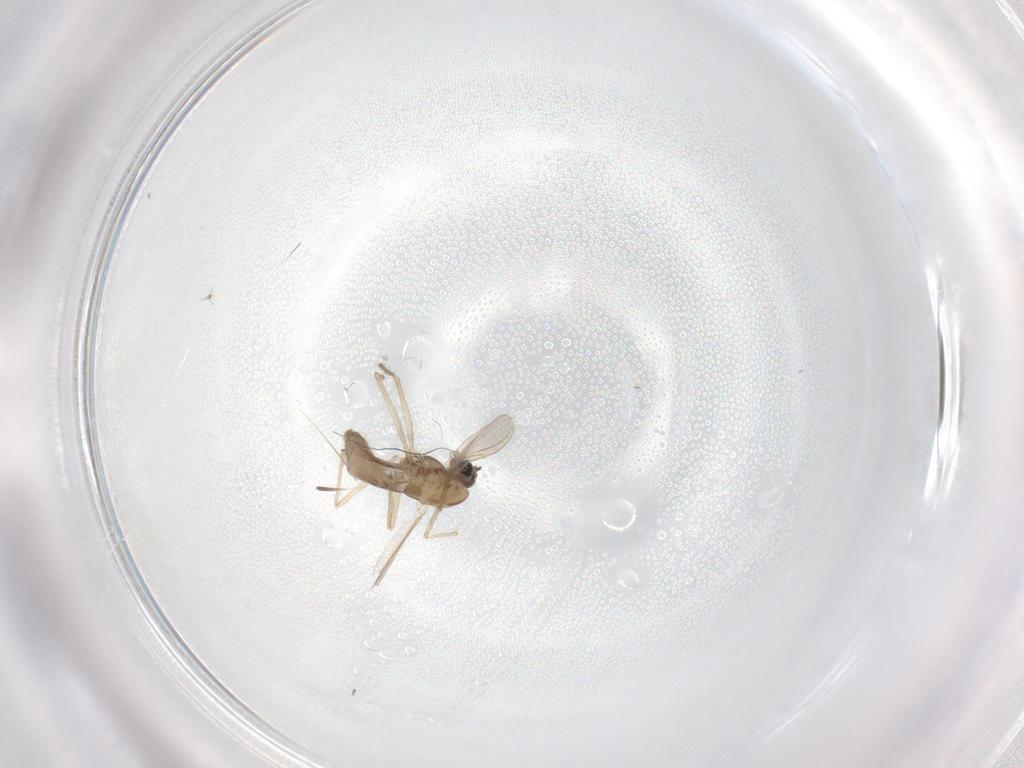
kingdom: Animalia
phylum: Arthropoda
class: Insecta
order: Diptera
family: Chironomidae
